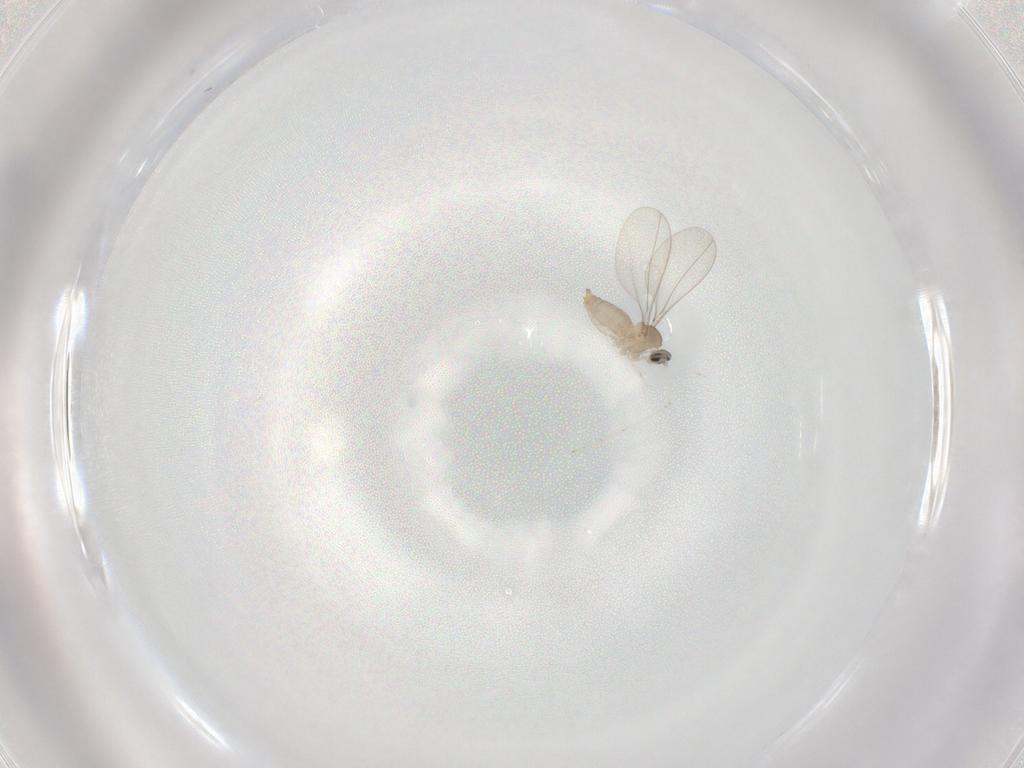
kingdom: Animalia
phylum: Arthropoda
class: Insecta
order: Diptera
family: Cecidomyiidae
